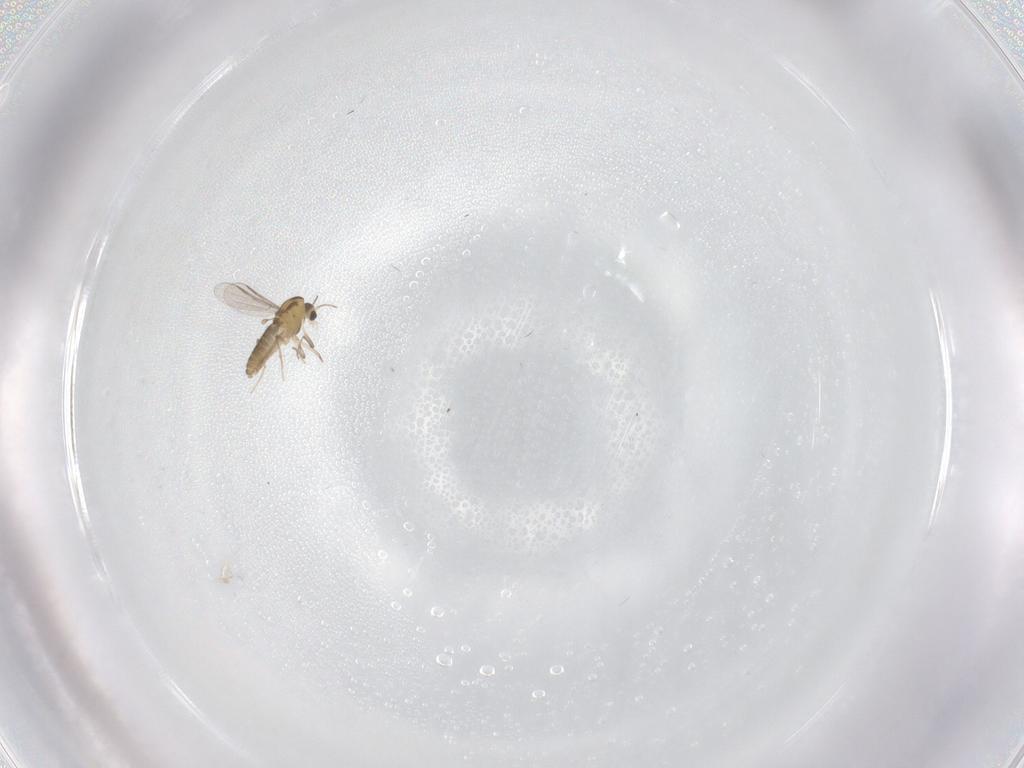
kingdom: Animalia
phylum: Arthropoda
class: Insecta
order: Diptera
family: Chironomidae
